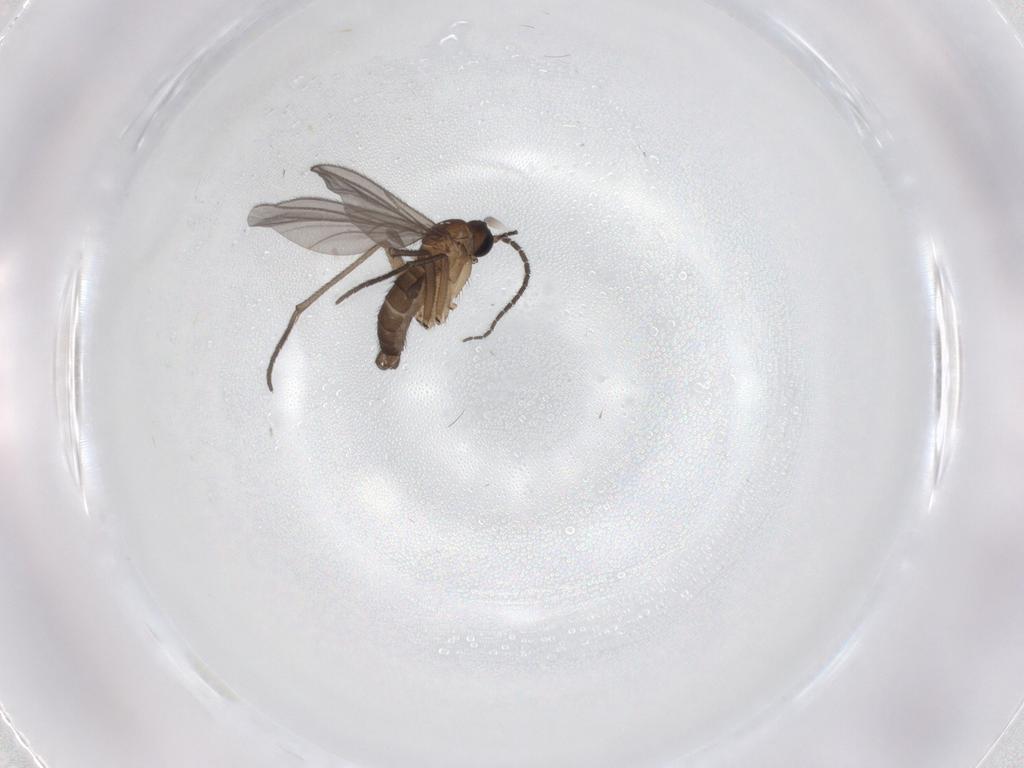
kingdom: Animalia
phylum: Arthropoda
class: Insecta
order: Diptera
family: Sciaridae
